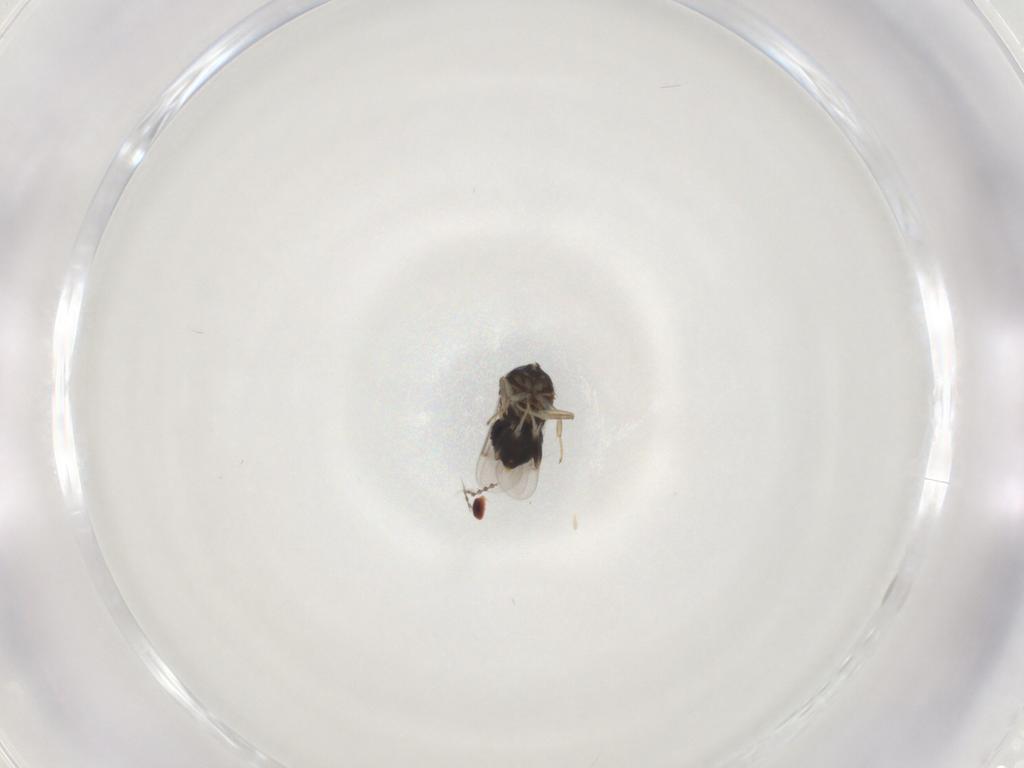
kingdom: Animalia
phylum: Arthropoda
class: Insecta
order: Hymenoptera
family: Aphelinidae
